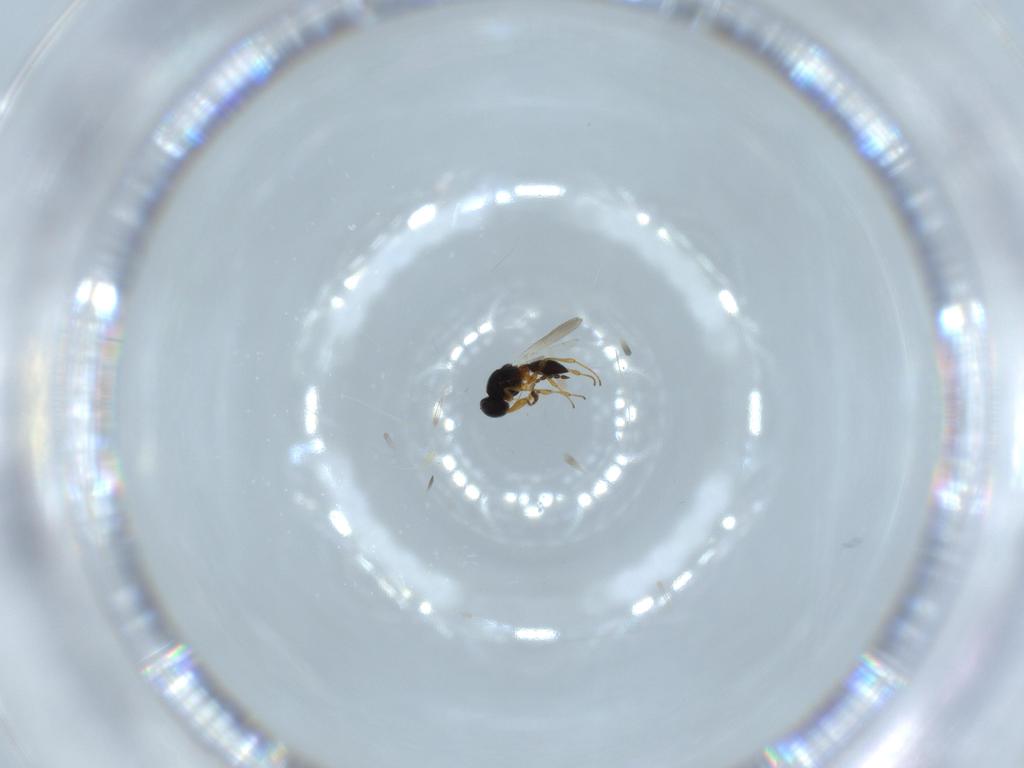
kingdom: Animalia
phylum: Arthropoda
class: Insecta
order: Hymenoptera
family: Platygastridae
